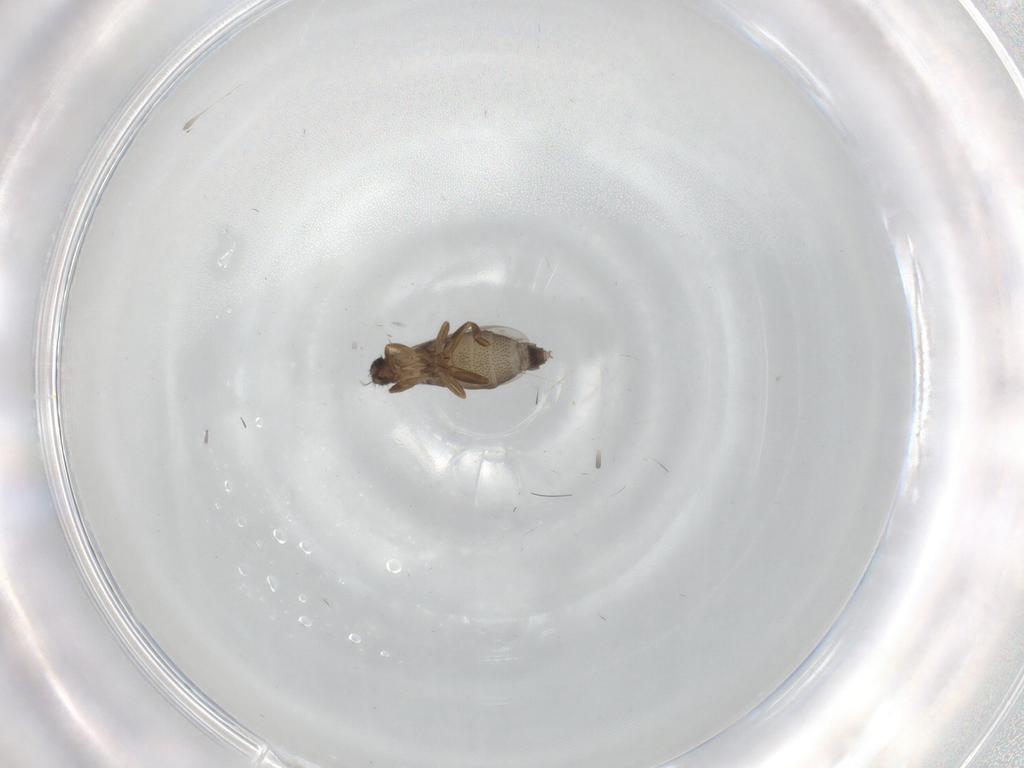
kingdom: Animalia
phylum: Arthropoda
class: Insecta
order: Diptera
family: Phoridae
